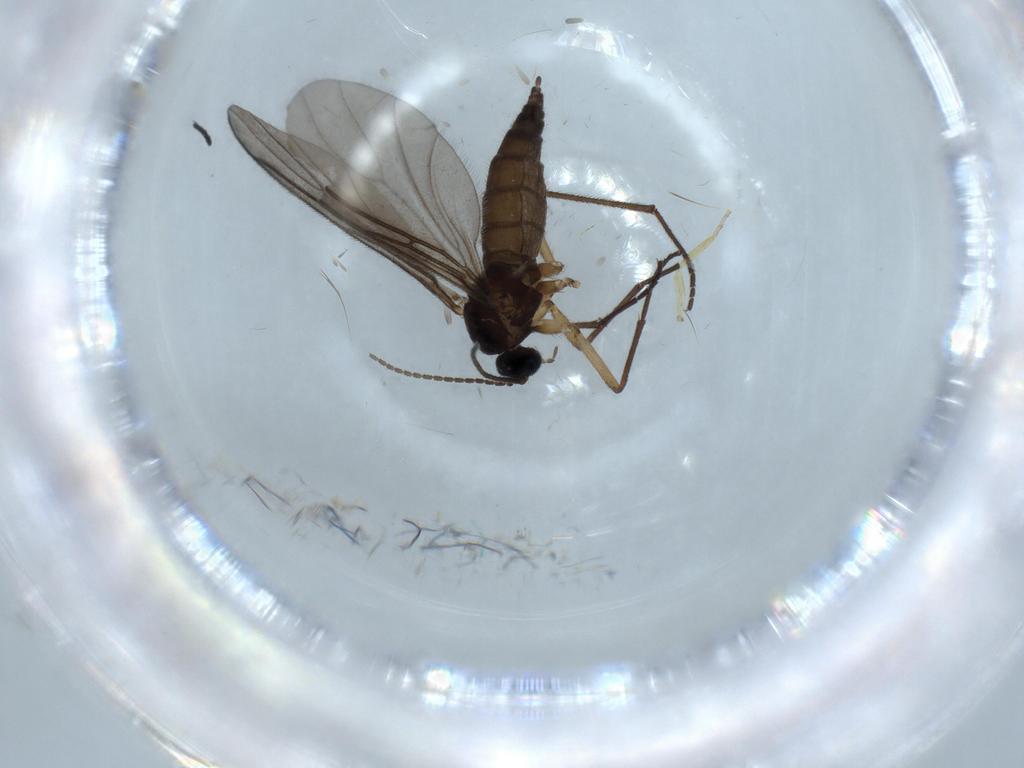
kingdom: Animalia
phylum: Arthropoda
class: Insecta
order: Diptera
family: Sciaridae
